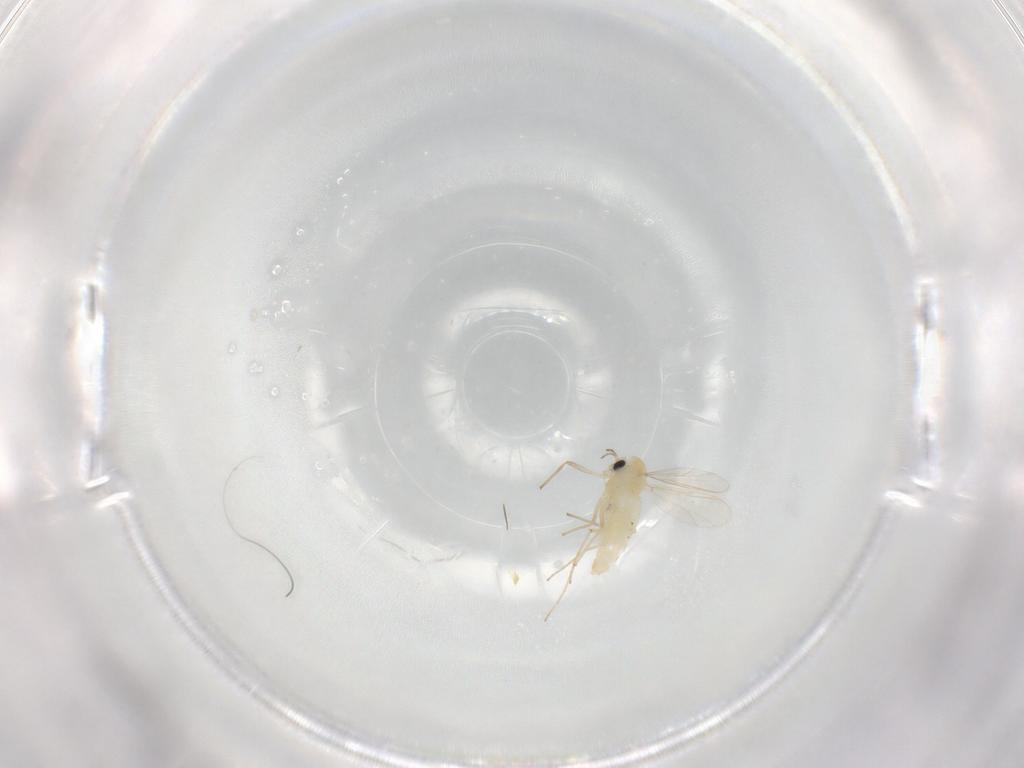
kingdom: Animalia
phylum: Arthropoda
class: Insecta
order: Diptera
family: Chironomidae
